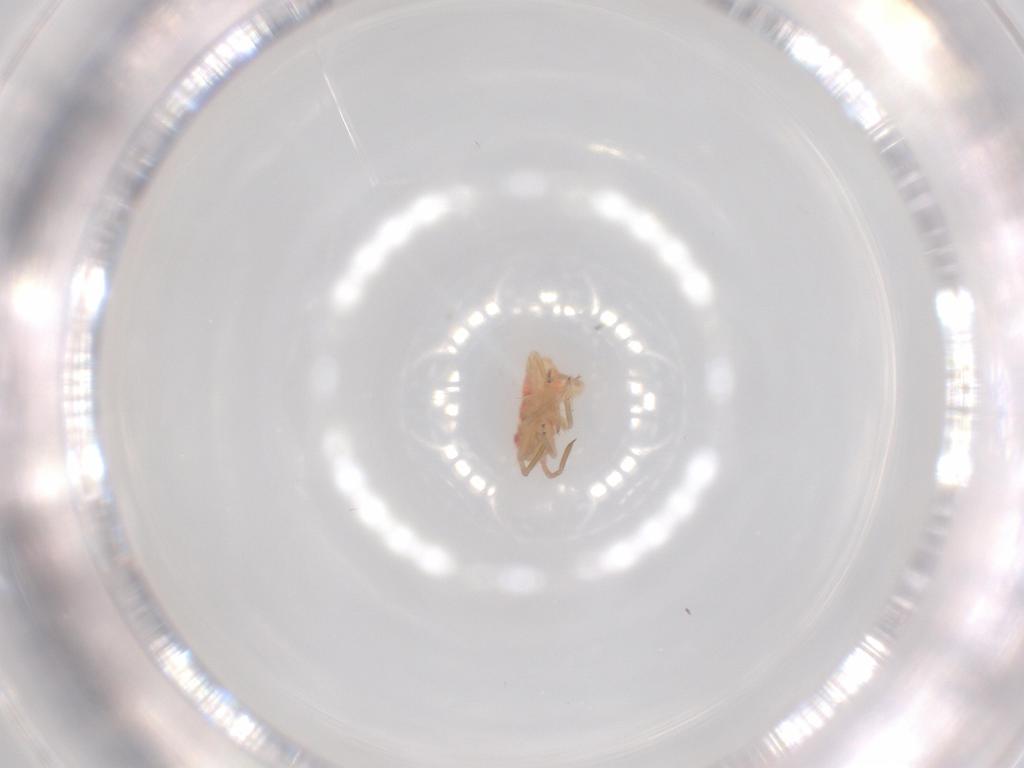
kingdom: Animalia
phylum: Arthropoda
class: Insecta
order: Hemiptera
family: Miridae
